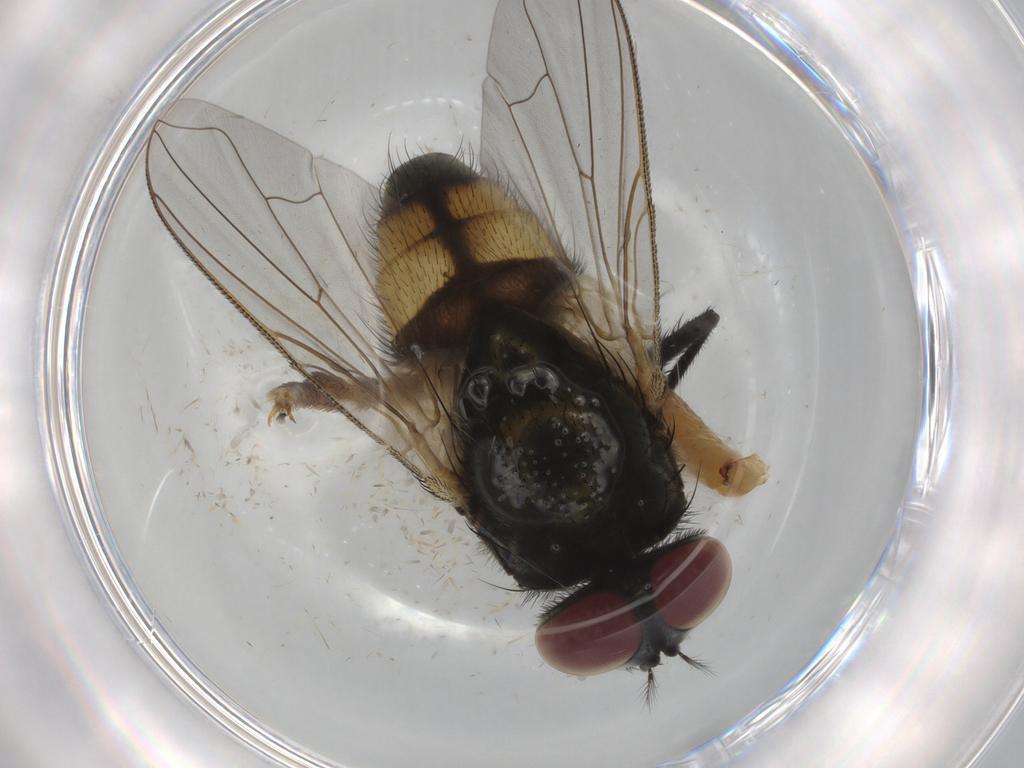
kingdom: Animalia
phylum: Arthropoda
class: Insecta
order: Diptera
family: Muscidae
